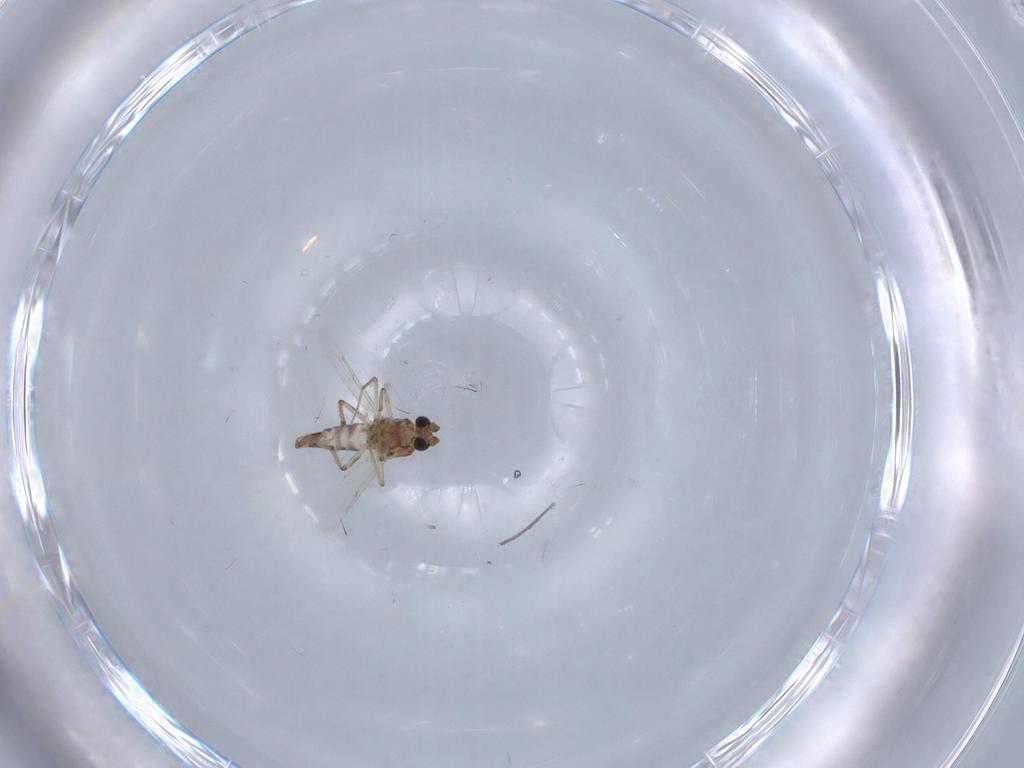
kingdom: Animalia
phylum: Arthropoda
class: Insecta
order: Diptera
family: Ceratopogonidae
